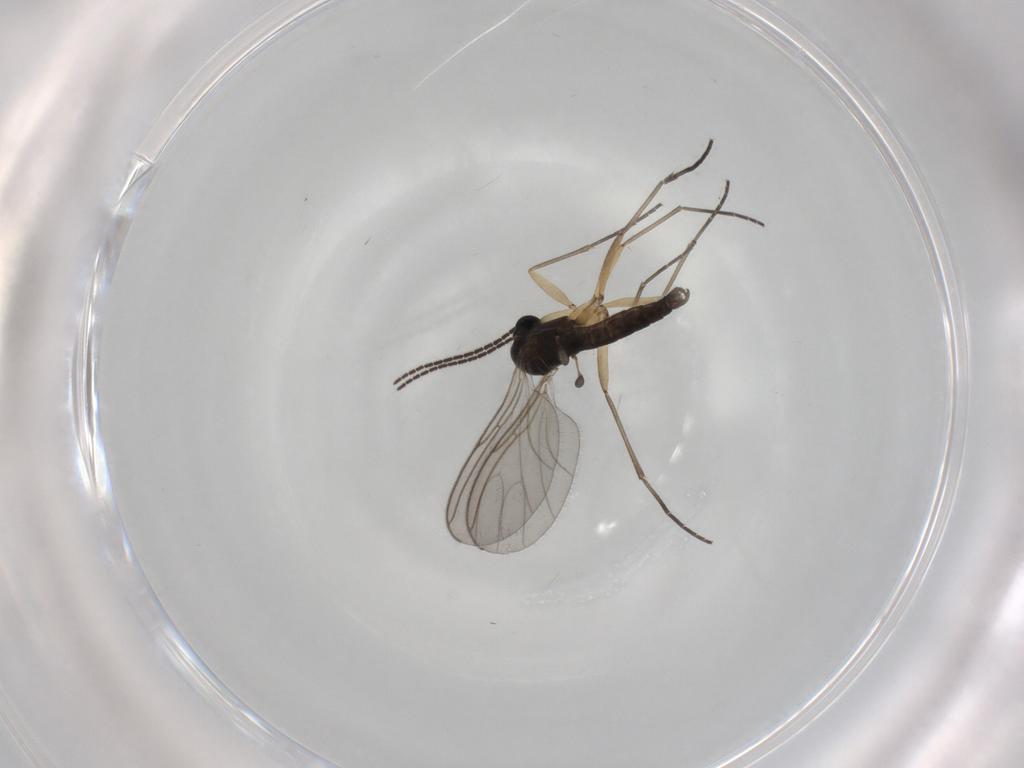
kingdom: Animalia
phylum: Arthropoda
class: Insecta
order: Diptera
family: Sciaridae
